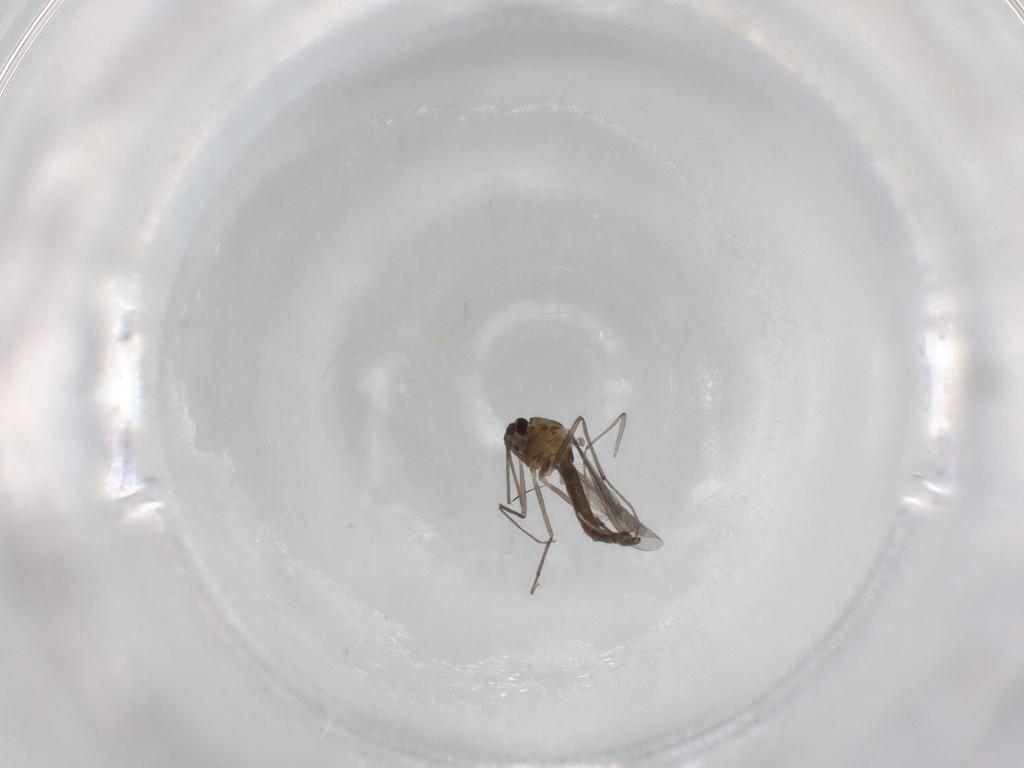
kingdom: Animalia
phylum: Arthropoda
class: Insecta
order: Diptera
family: Chironomidae
